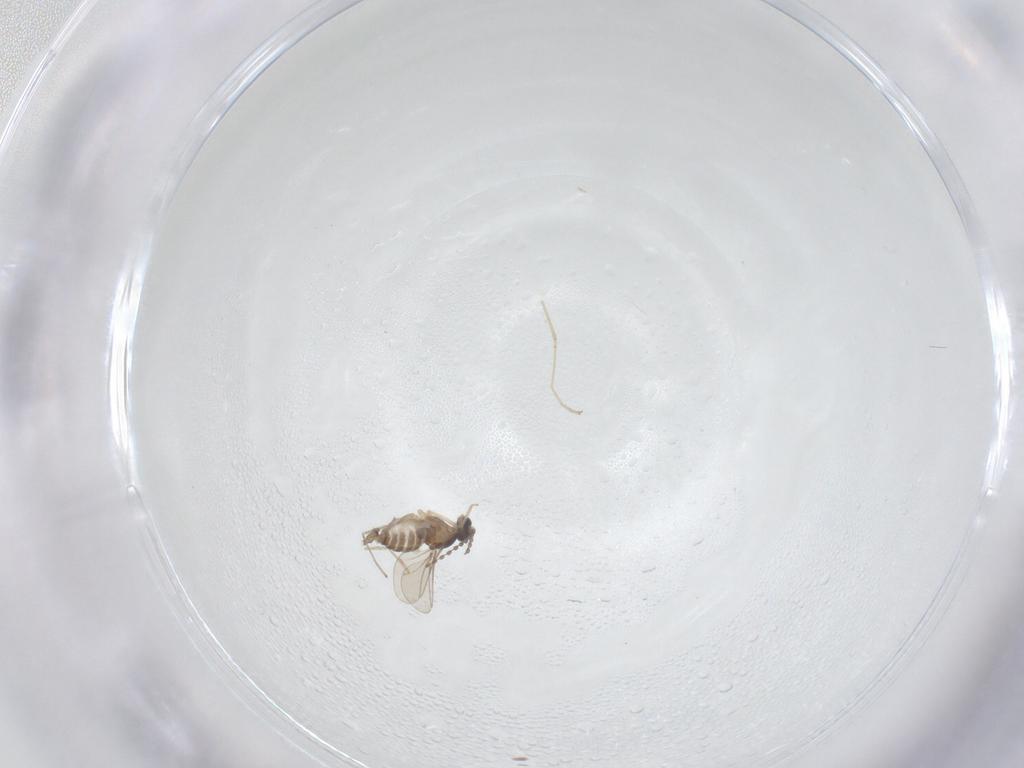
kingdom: Animalia
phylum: Arthropoda
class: Insecta
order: Diptera
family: Cecidomyiidae
